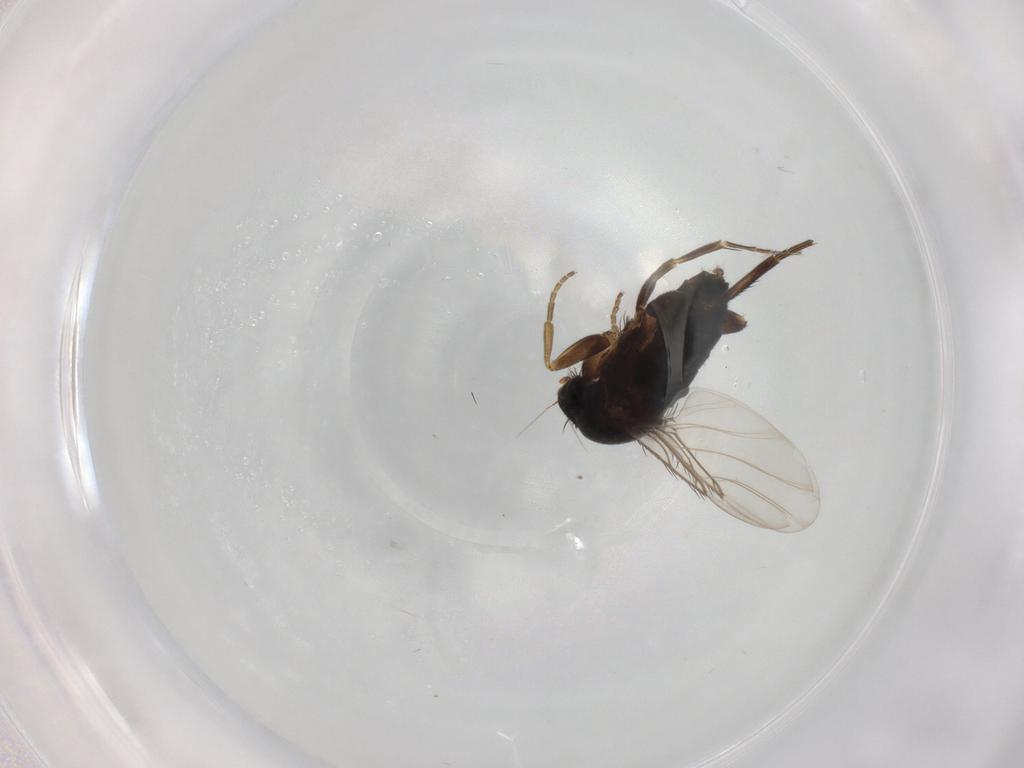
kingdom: Animalia
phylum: Arthropoda
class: Insecta
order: Diptera
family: Phoridae
